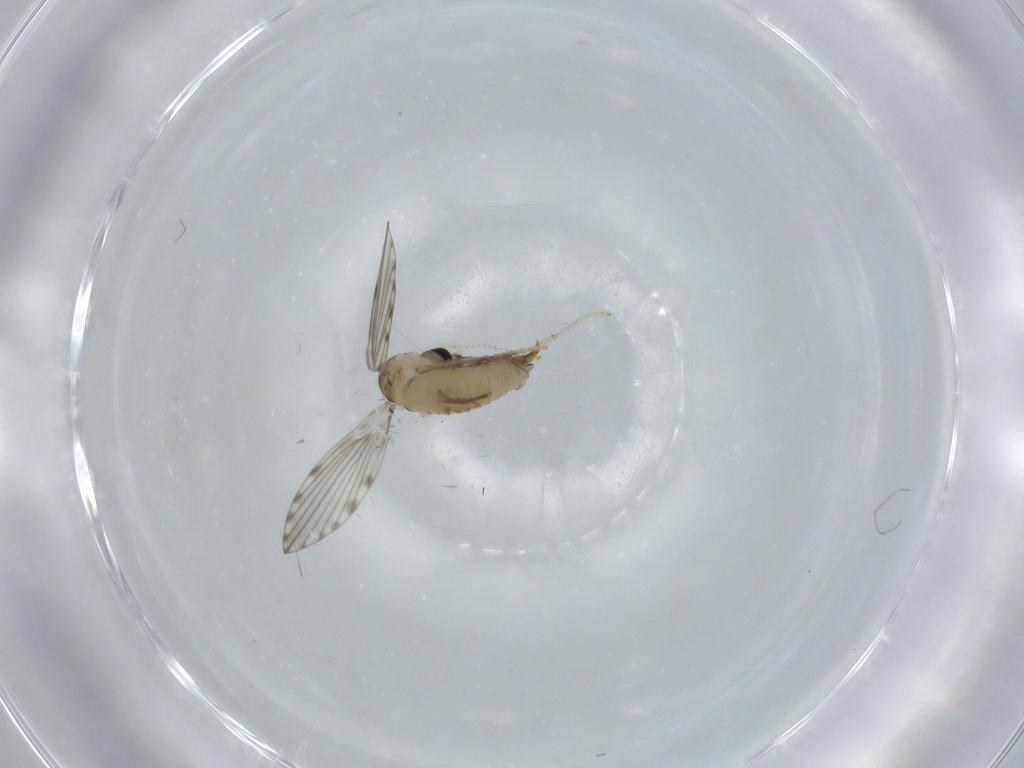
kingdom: Animalia
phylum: Arthropoda
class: Insecta
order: Diptera
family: Psychodidae
